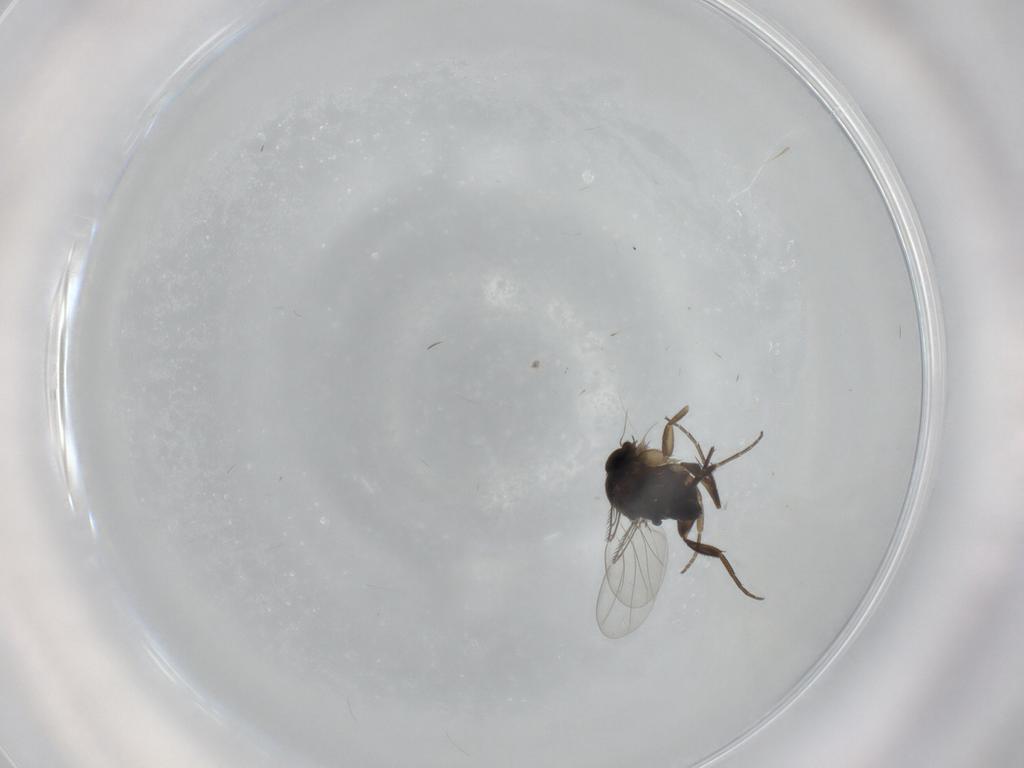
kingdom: Animalia
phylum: Arthropoda
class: Insecta
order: Diptera
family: Phoridae
